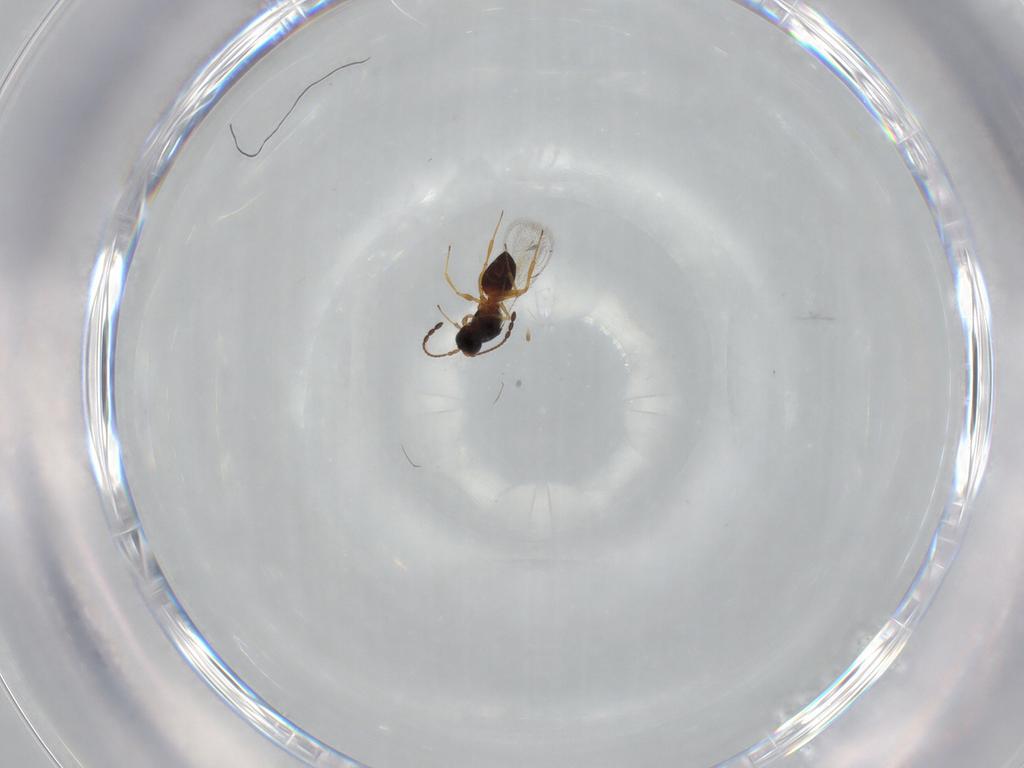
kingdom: Animalia
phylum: Arthropoda
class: Insecta
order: Hymenoptera
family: Figitidae
